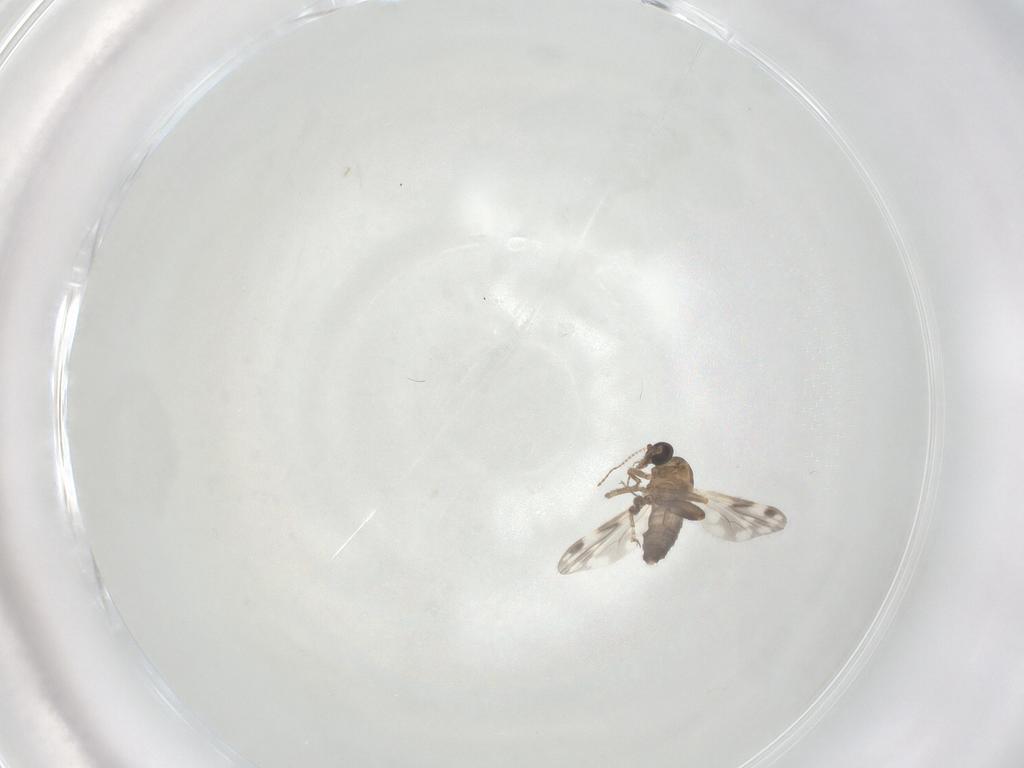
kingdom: Animalia
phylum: Arthropoda
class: Insecta
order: Diptera
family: Ceratopogonidae
